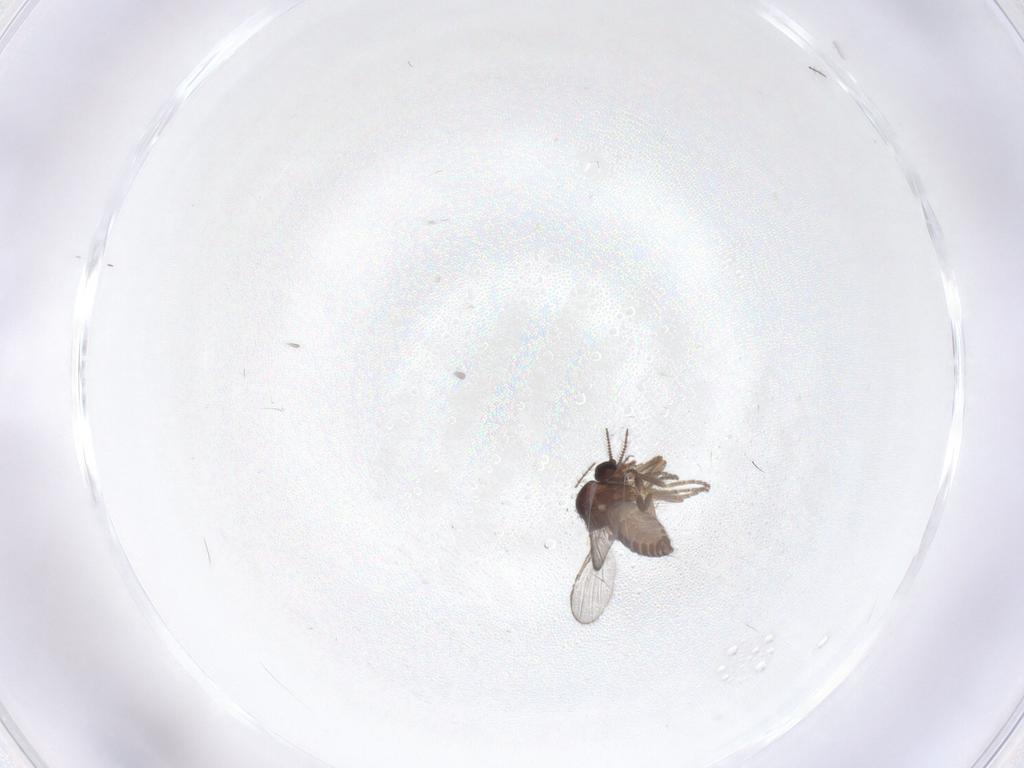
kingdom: Animalia
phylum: Arthropoda
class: Insecta
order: Diptera
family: Ceratopogonidae
